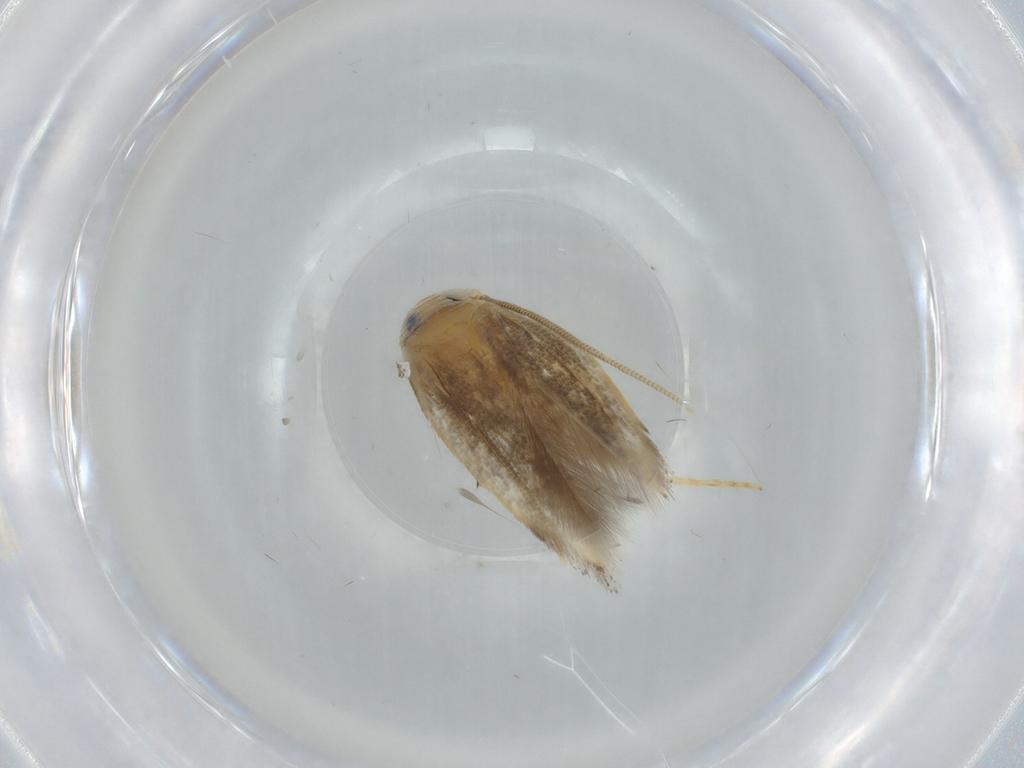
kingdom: Animalia
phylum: Arthropoda
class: Insecta
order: Lepidoptera
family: Opostegidae
